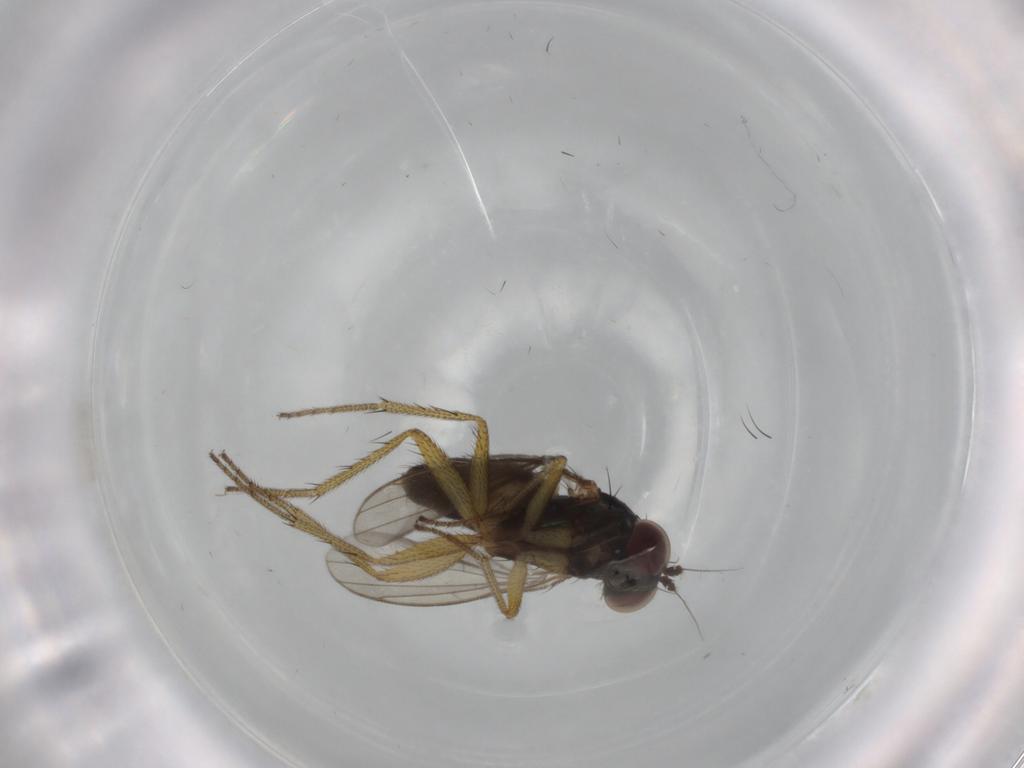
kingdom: Animalia
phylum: Arthropoda
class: Insecta
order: Diptera
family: Dolichopodidae
